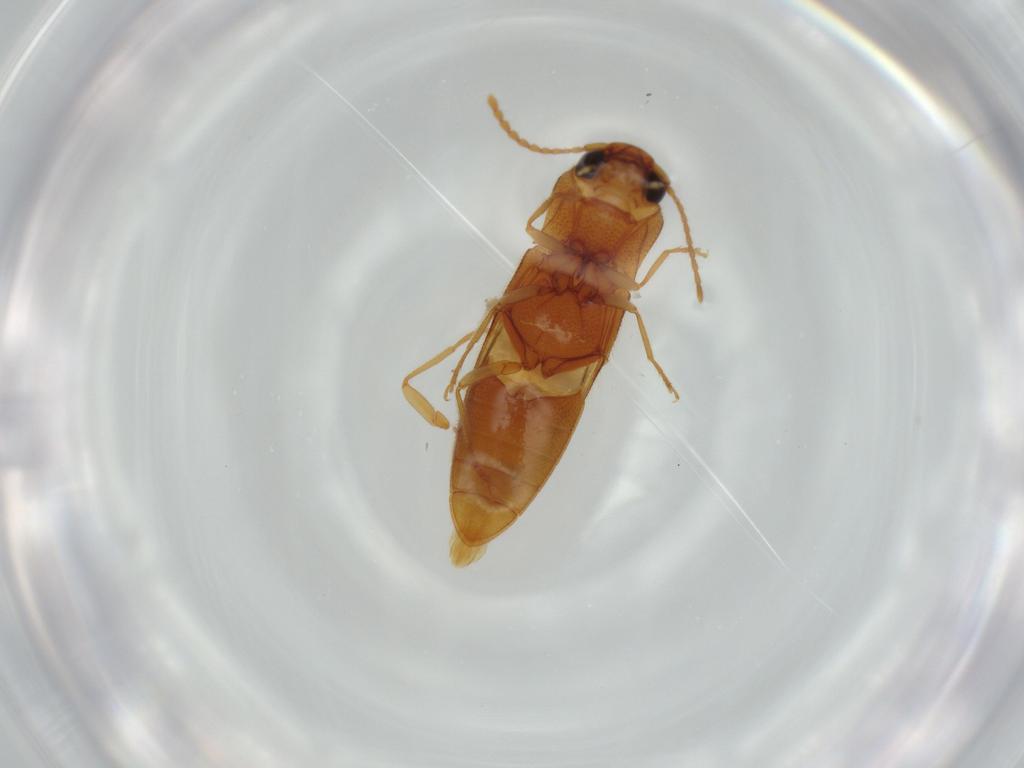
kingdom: Animalia
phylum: Arthropoda
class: Insecta
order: Coleoptera
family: Elateridae
